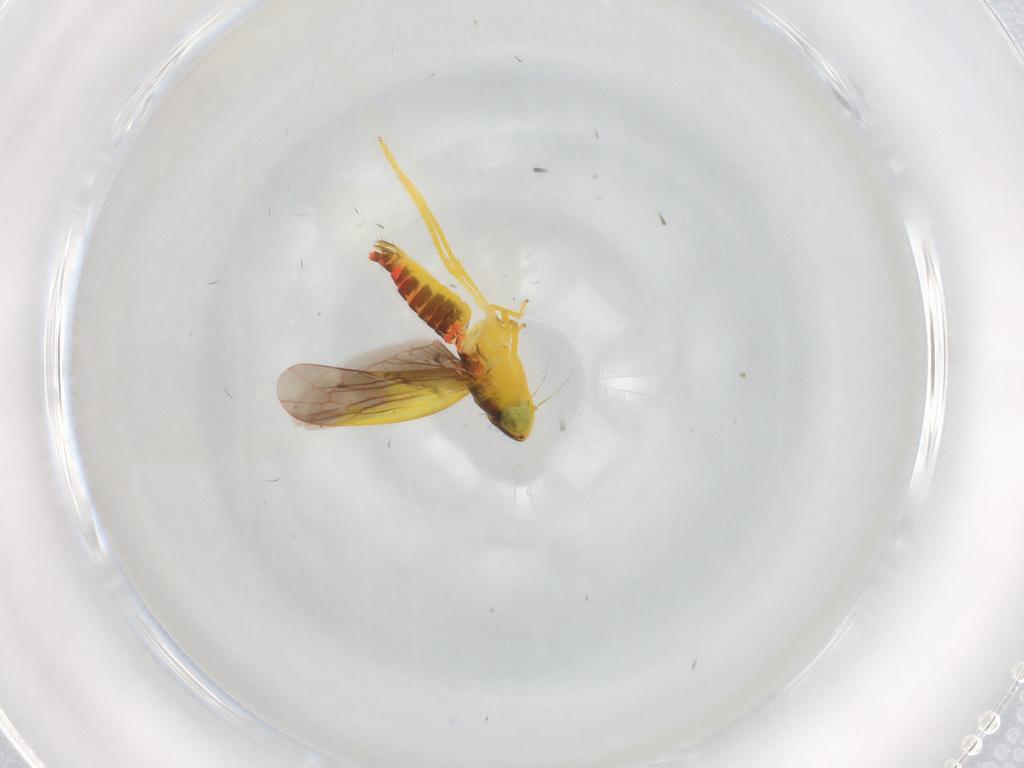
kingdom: Animalia
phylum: Arthropoda
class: Insecta
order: Hemiptera
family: Cicadellidae
